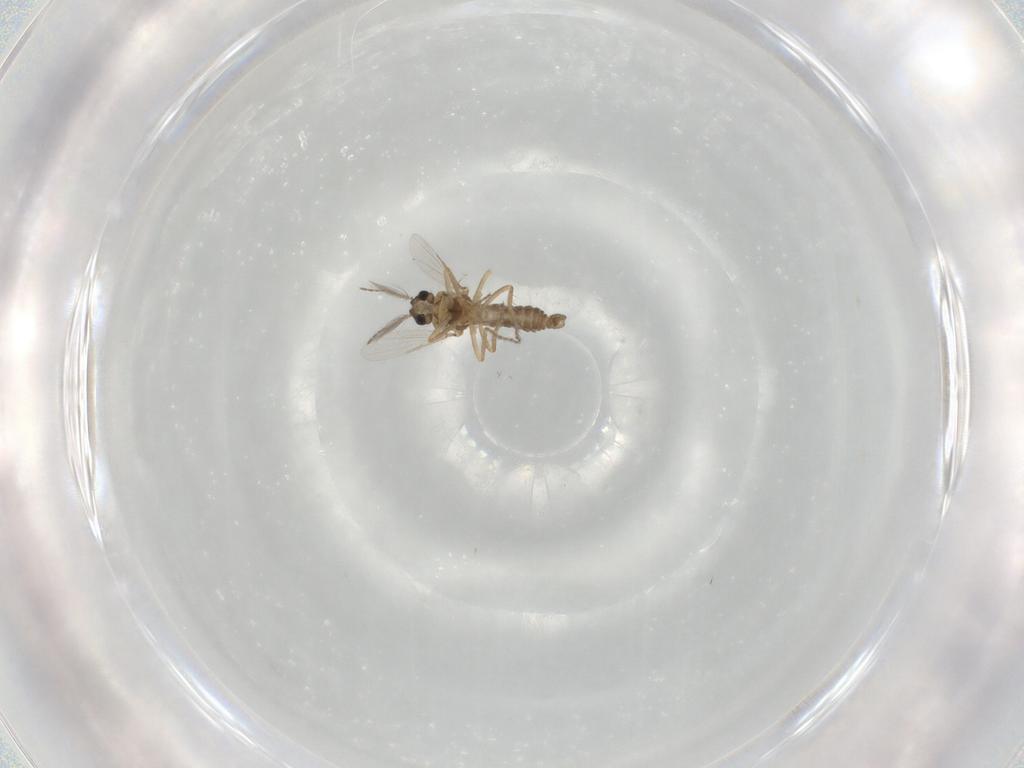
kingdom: Animalia
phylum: Arthropoda
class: Insecta
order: Diptera
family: Ceratopogonidae
